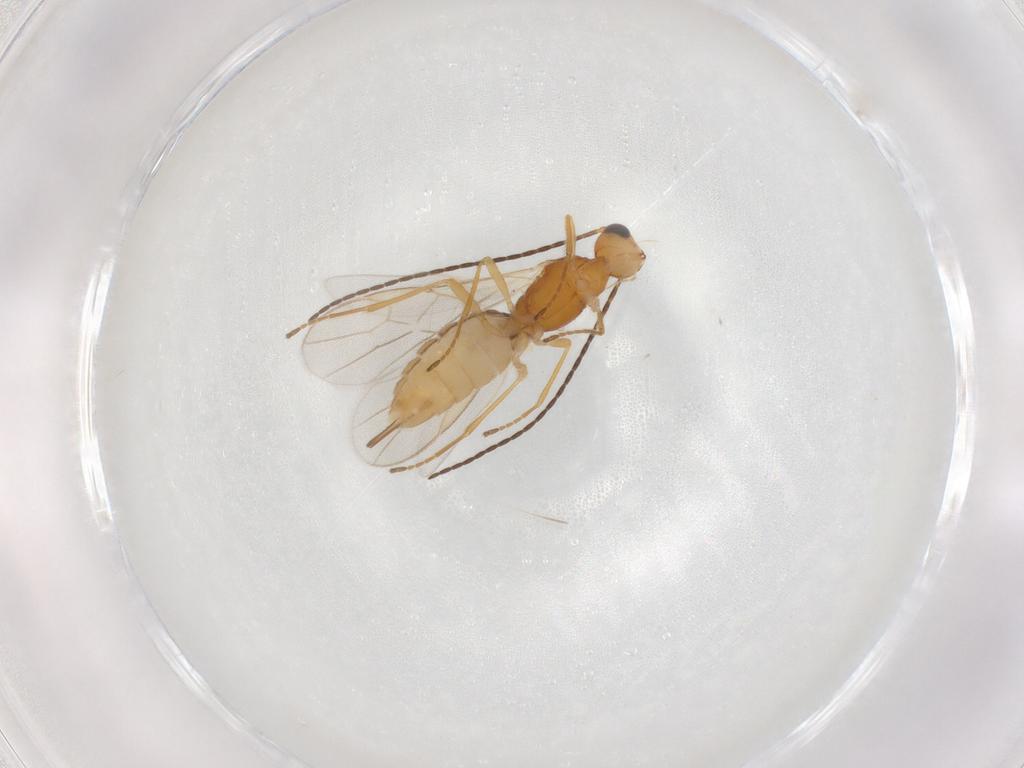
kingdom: Animalia
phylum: Arthropoda
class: Insecta
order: Hymenoptera
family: Braconidae
